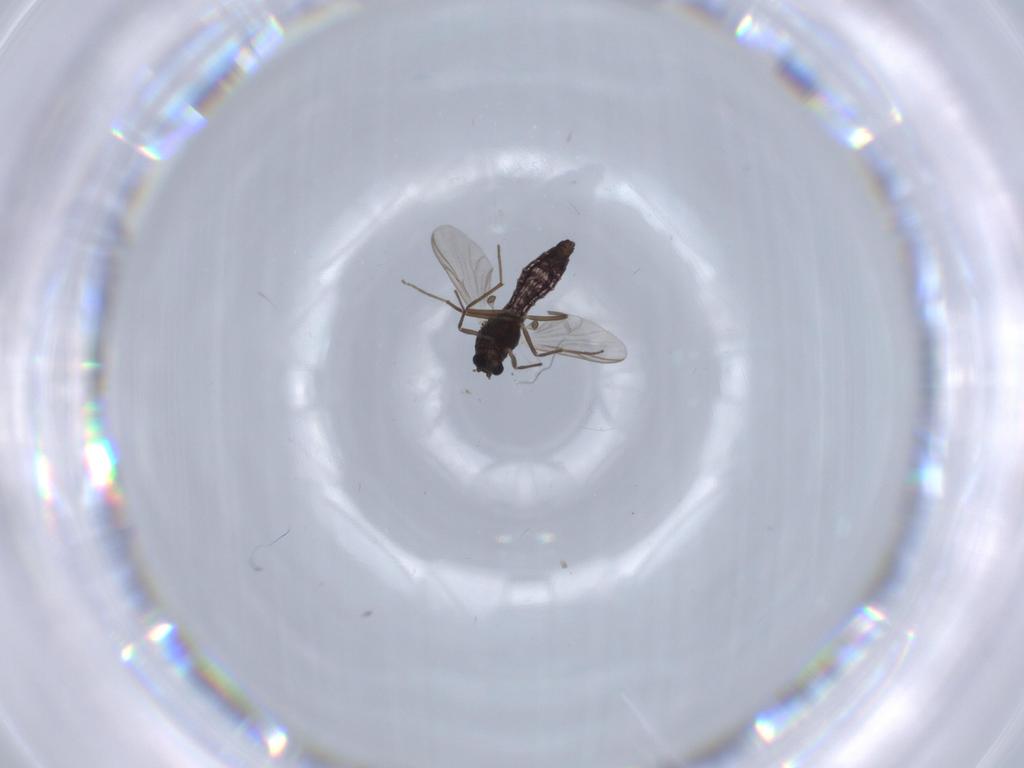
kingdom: Animalia
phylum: Arthropoda
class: Insecta
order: Diptera
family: Chironomidae
